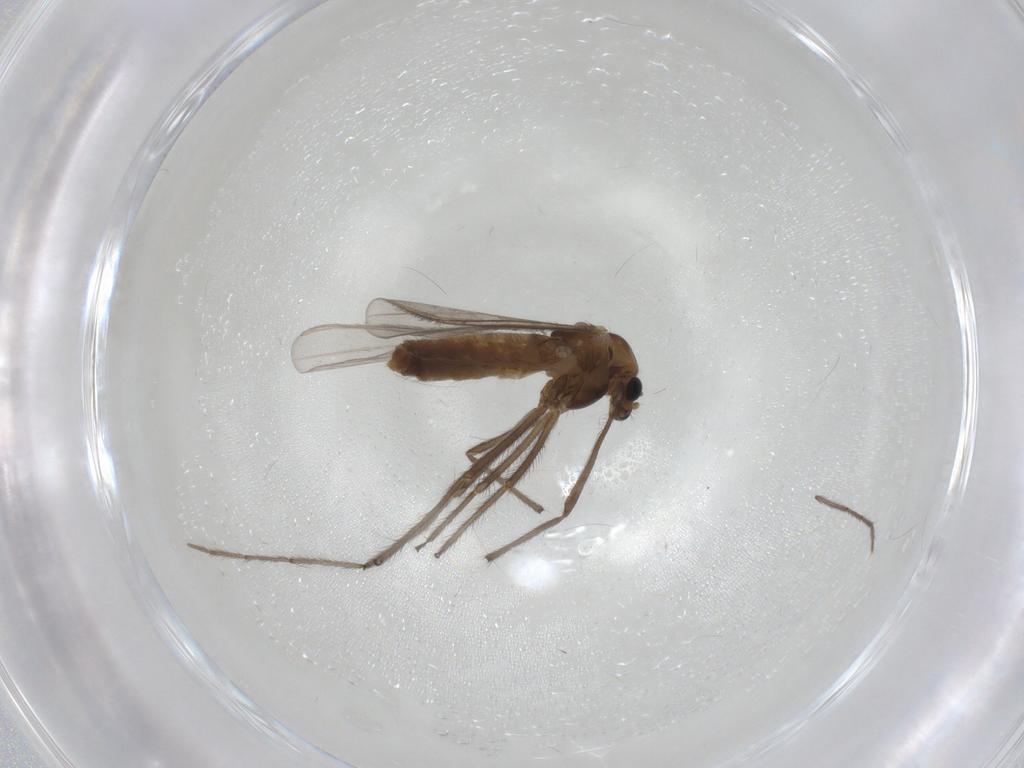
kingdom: Animalia
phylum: Arthropoda
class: Insecta
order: Diptera
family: Chironomidae
